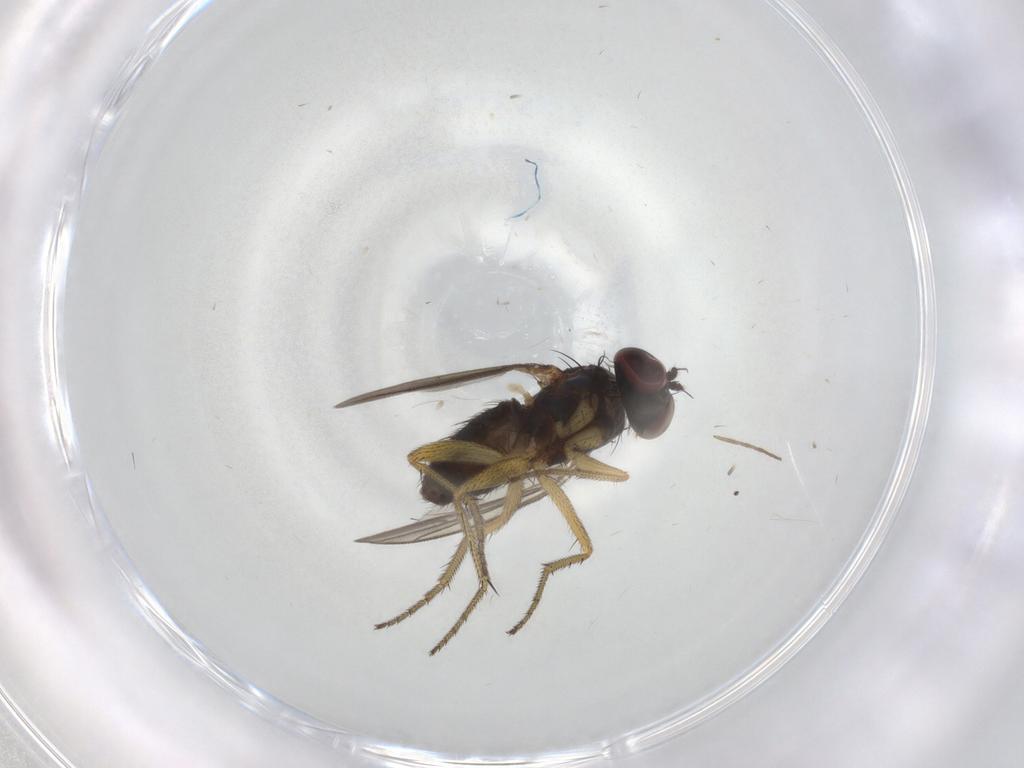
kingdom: Animalia
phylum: Arthropoda
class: Insecta
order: Diptera
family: Dolichopodidae
